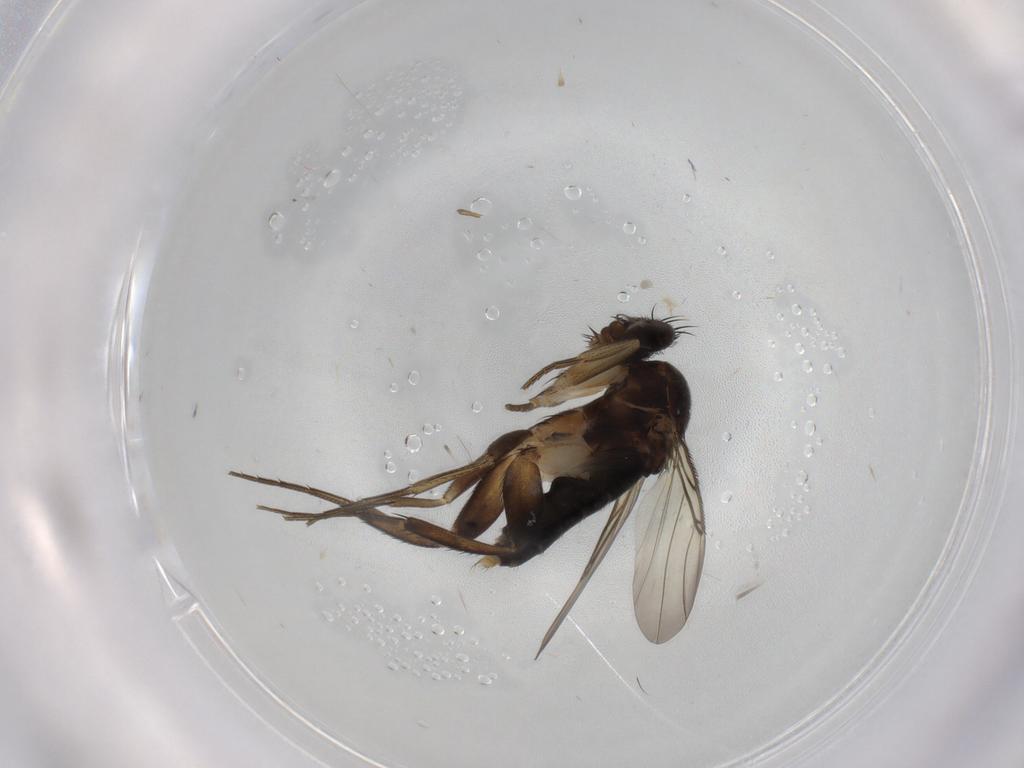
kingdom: Animalia
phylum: Arthropoda
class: Insecta
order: Diptera
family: Phoridae
